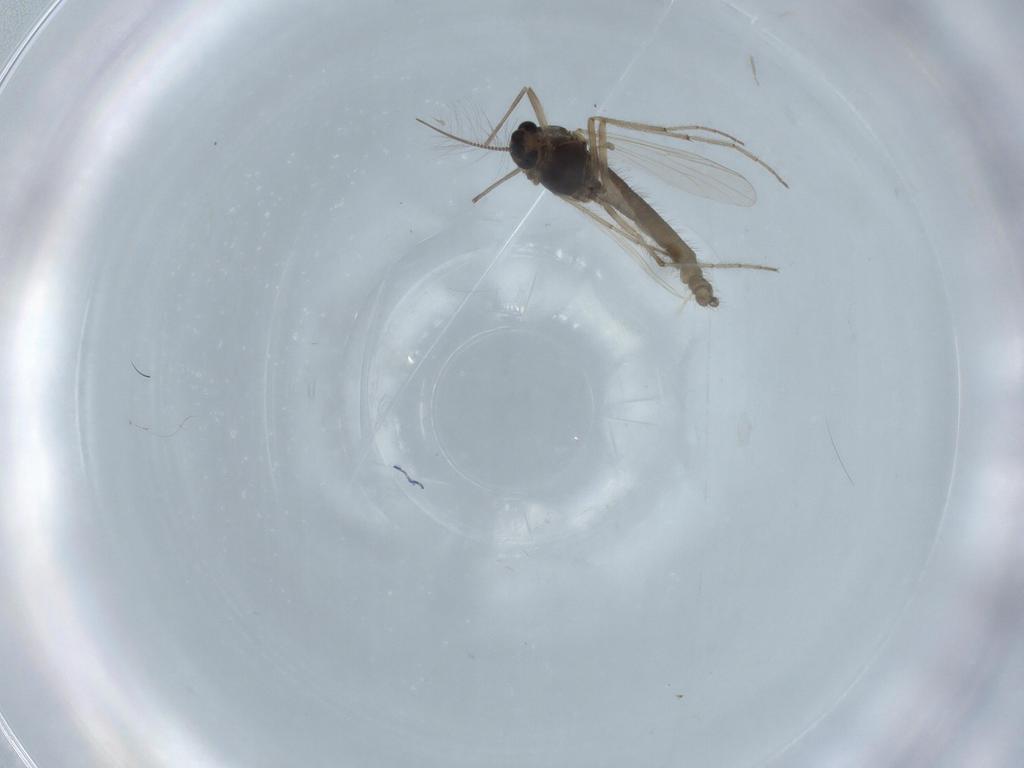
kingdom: Animalia
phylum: Arthropoda
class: Insecta
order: Diptera
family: Chironomidae
